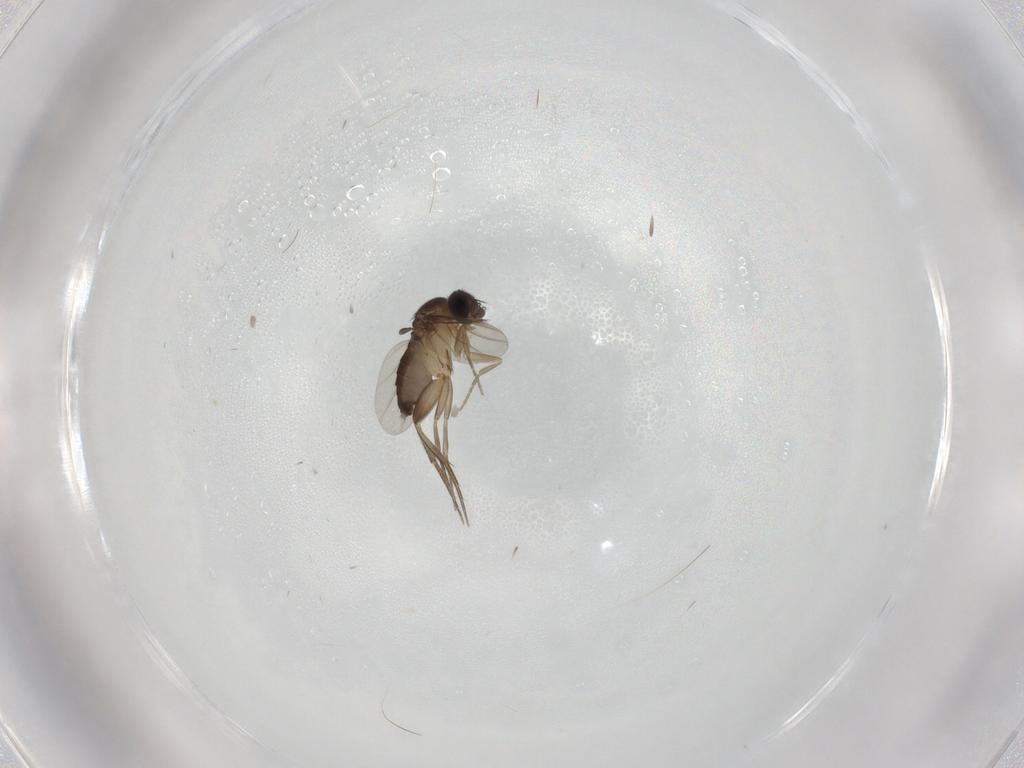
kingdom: Animalia
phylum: Arthropoda
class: Insecta
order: Diptera
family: Phoridae
